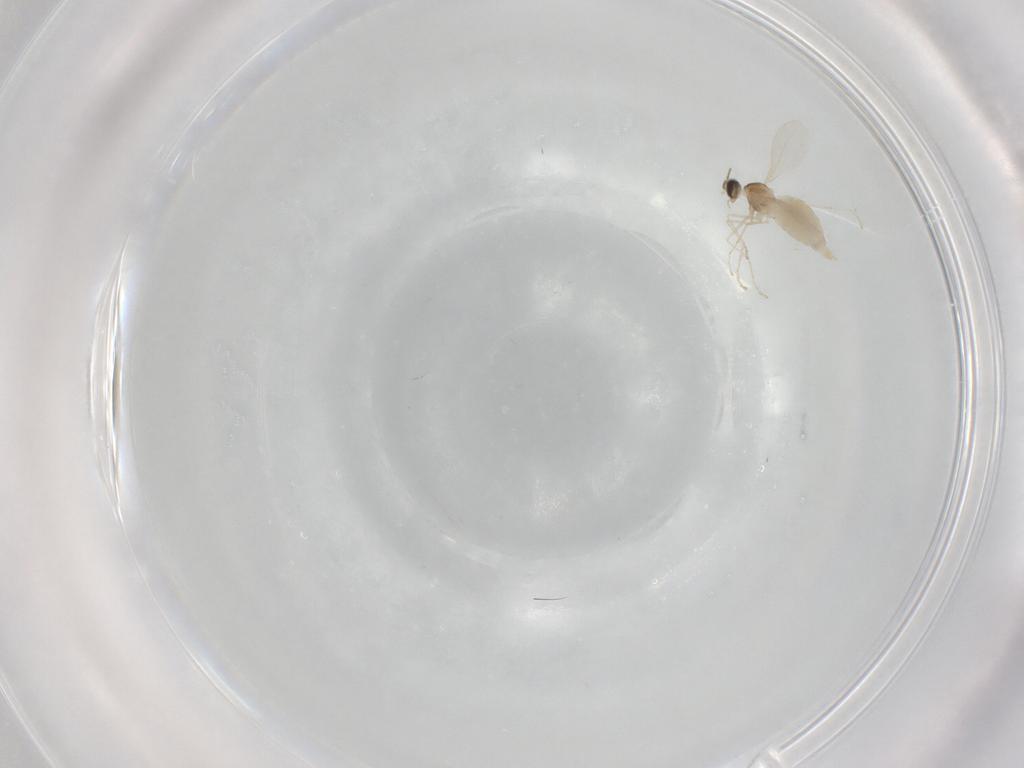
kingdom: Animalia
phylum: Arthropoda
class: Insecta
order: Diptera
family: Cecidomyiidae
